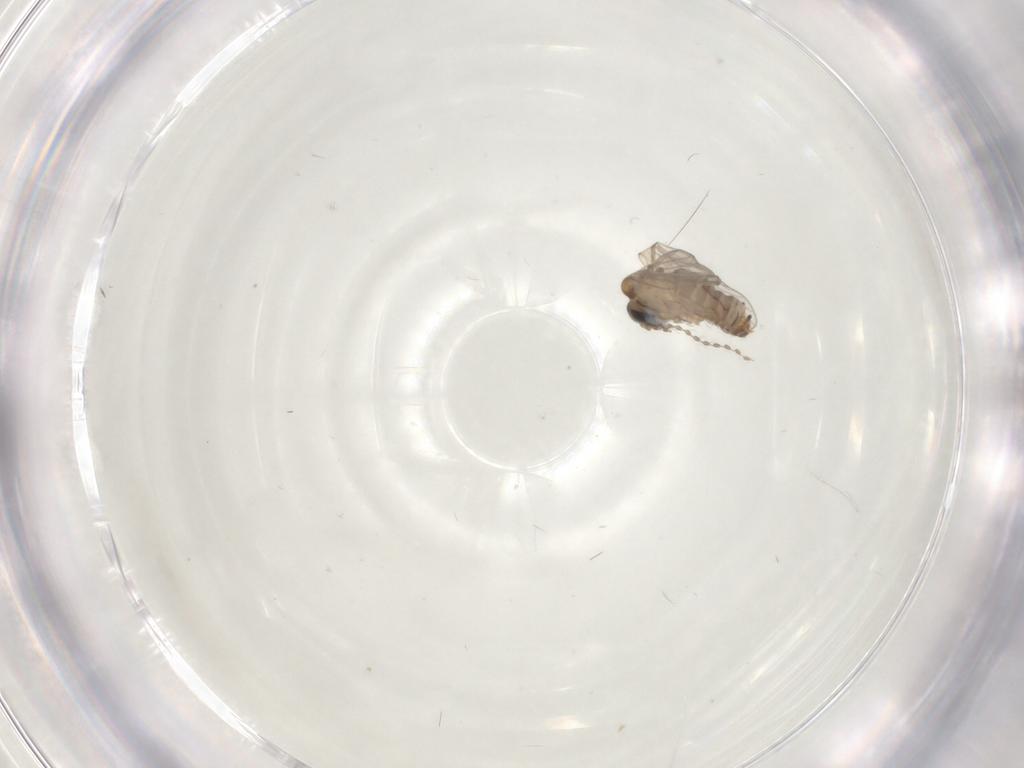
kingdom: Animalia
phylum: Arthropoda
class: Insecta
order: Diptera
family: Psychodidae
